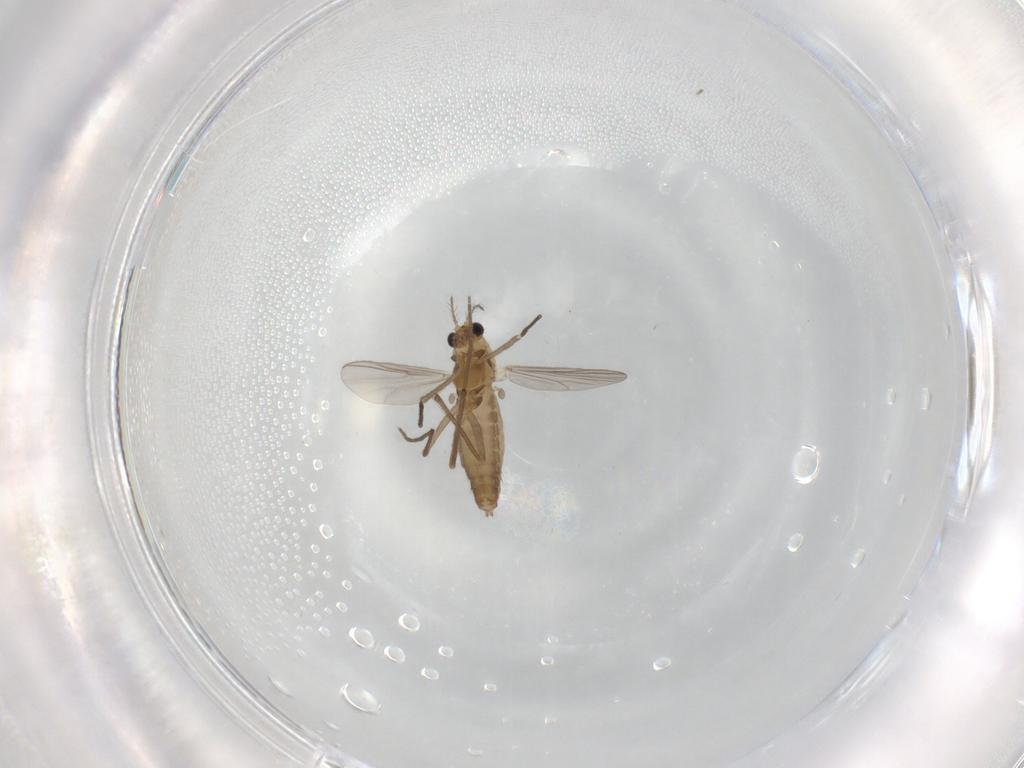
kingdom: Animalia
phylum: Arthropoda
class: Insecta
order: Diptera
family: Chironomidae
